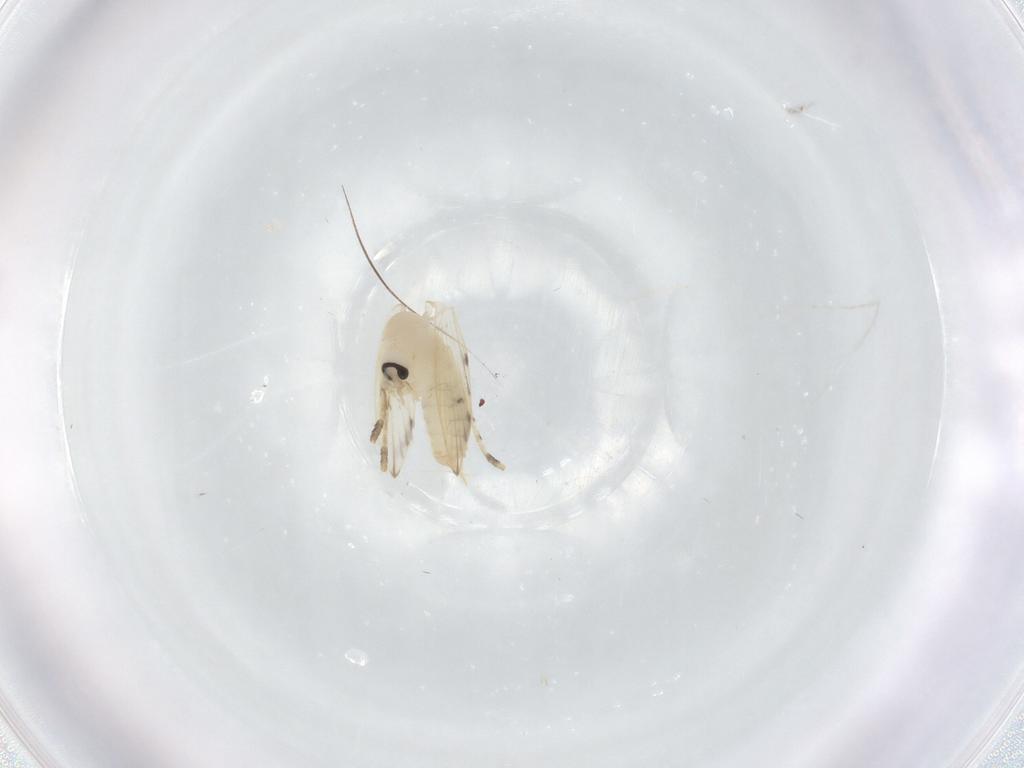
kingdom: Animalia
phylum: Arthropoda
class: Insecta
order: Diptera
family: Psychodidae
